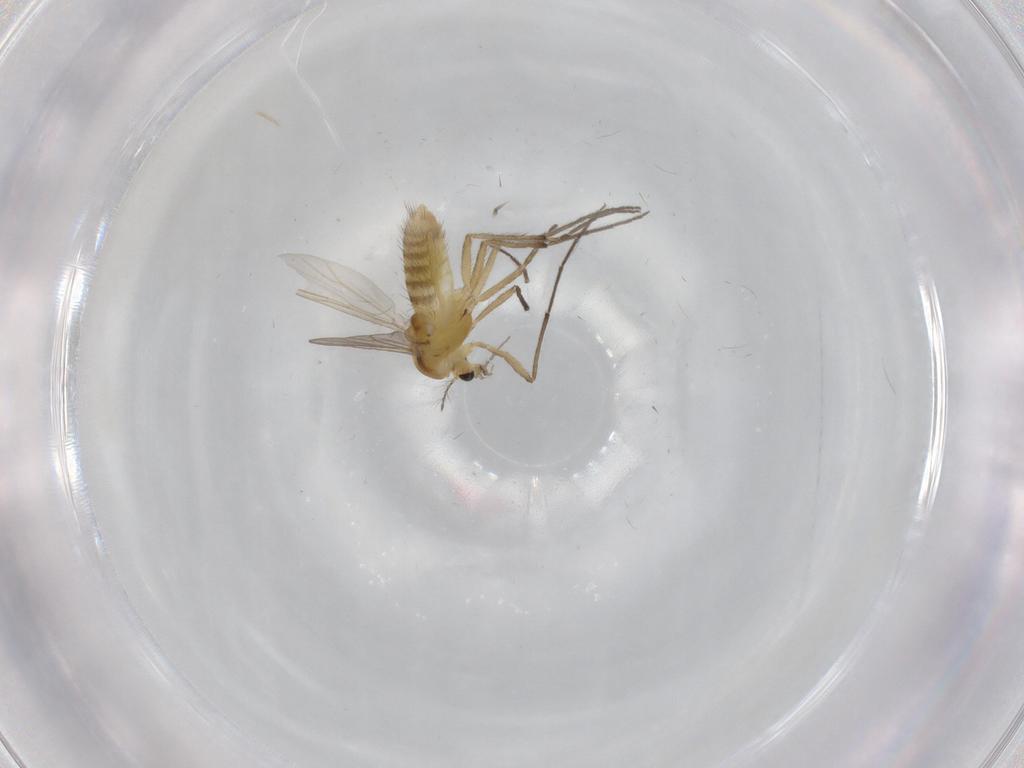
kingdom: Animalia
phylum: Arthropoda
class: Insecta
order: Diptera
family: Chironomidae
